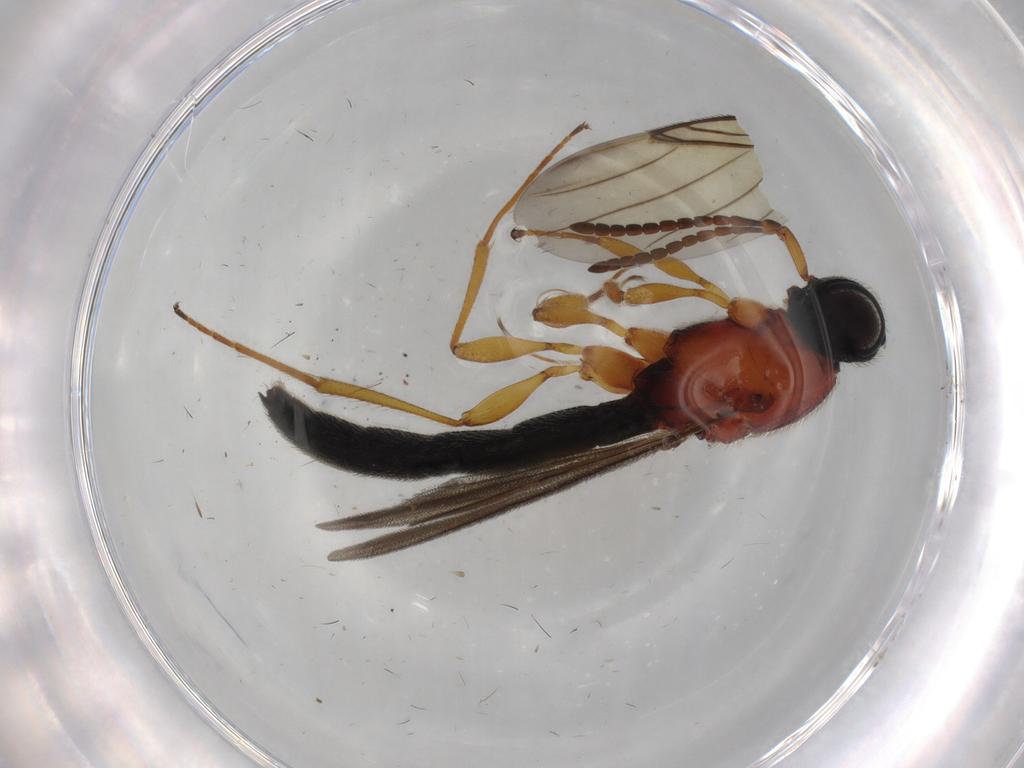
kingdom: Animalia
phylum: Arthropoda
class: Insecta
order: Hymenoptera
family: Scelionidae
